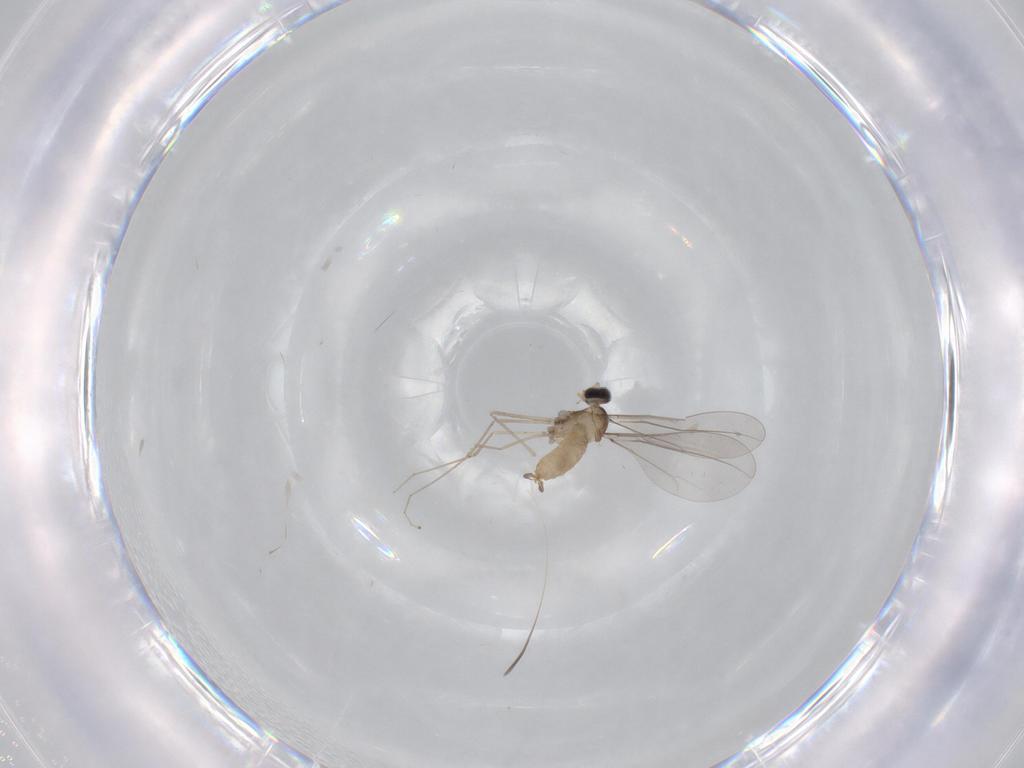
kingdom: Animalia
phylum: Arthropoda
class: Insecta
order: Diptera
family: Cecidomyiidae
